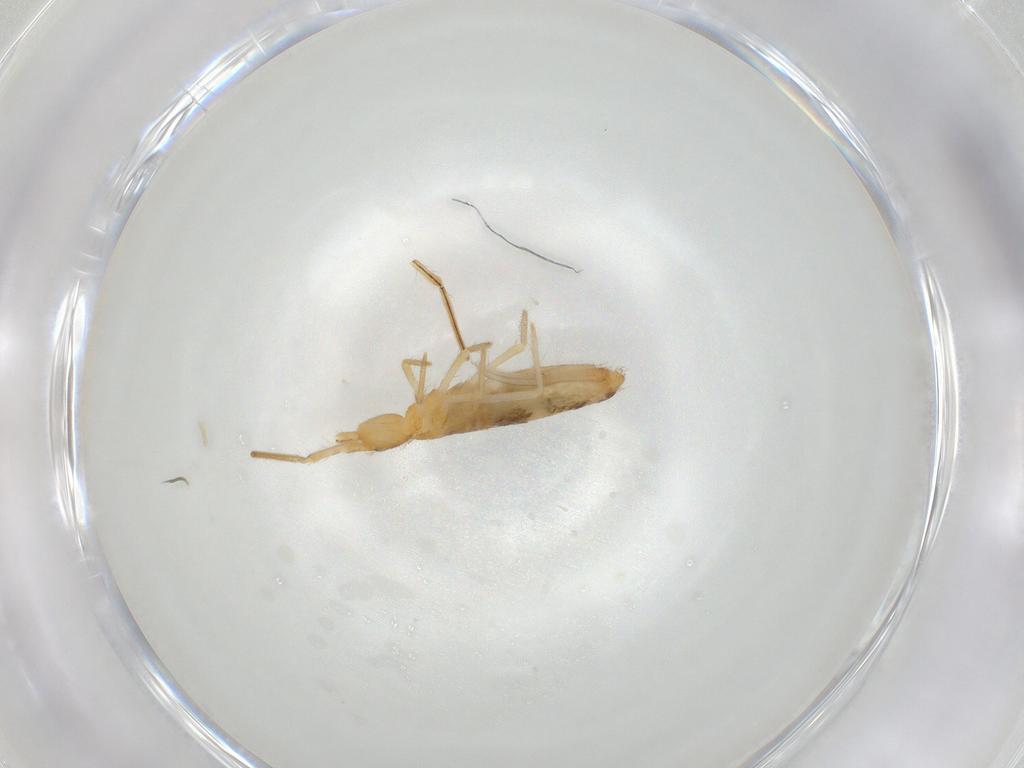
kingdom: Animalia
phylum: Arthropoda
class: Collembola
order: Entomobryomorpha
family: Entomobryidae
